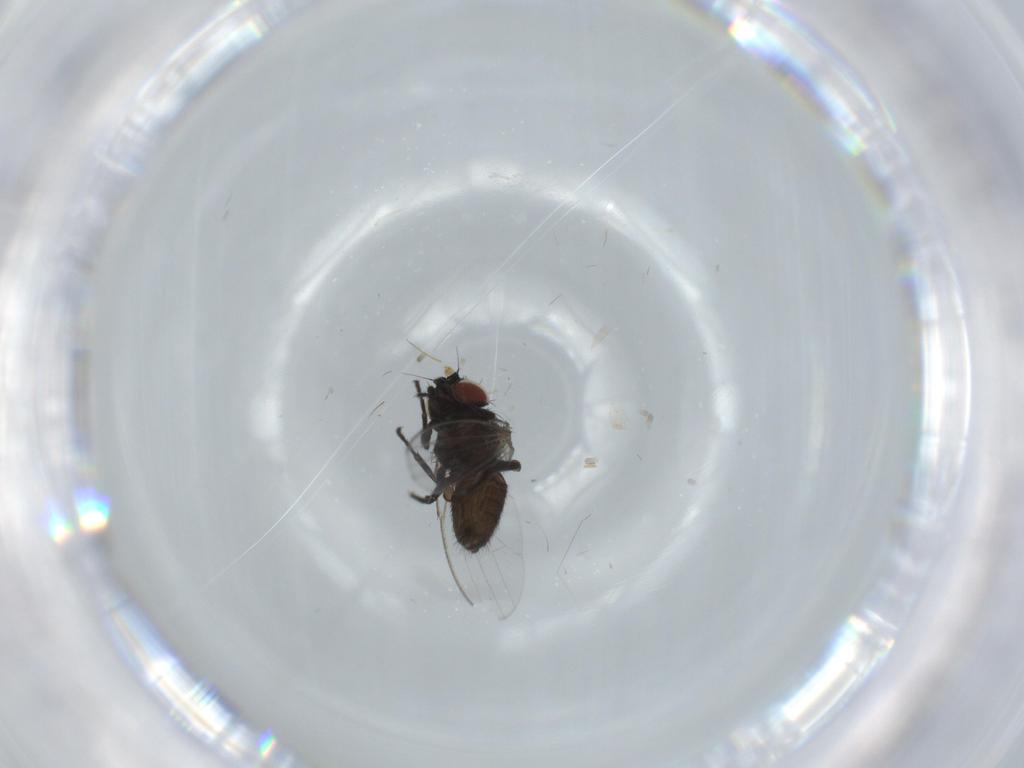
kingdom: Animalia
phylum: Arthropoda
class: Insecta
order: Diptera
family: Milichiidae
